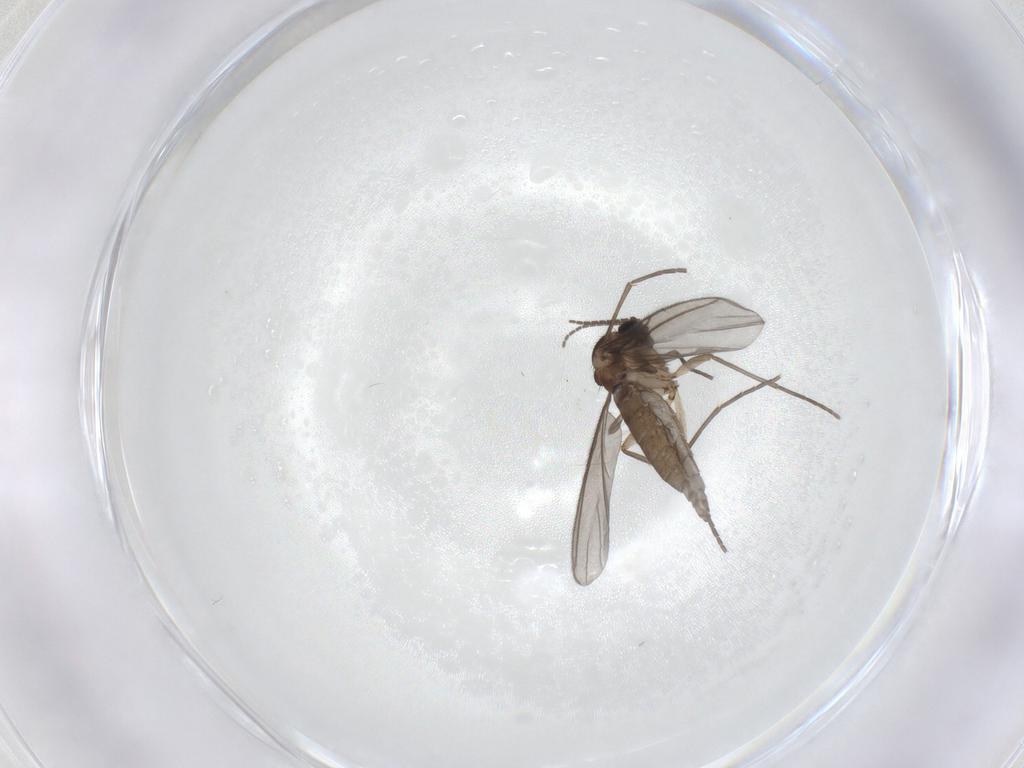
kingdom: Animalia
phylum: Arthropoda
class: Insecta
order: Diptera
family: Sciaridae
